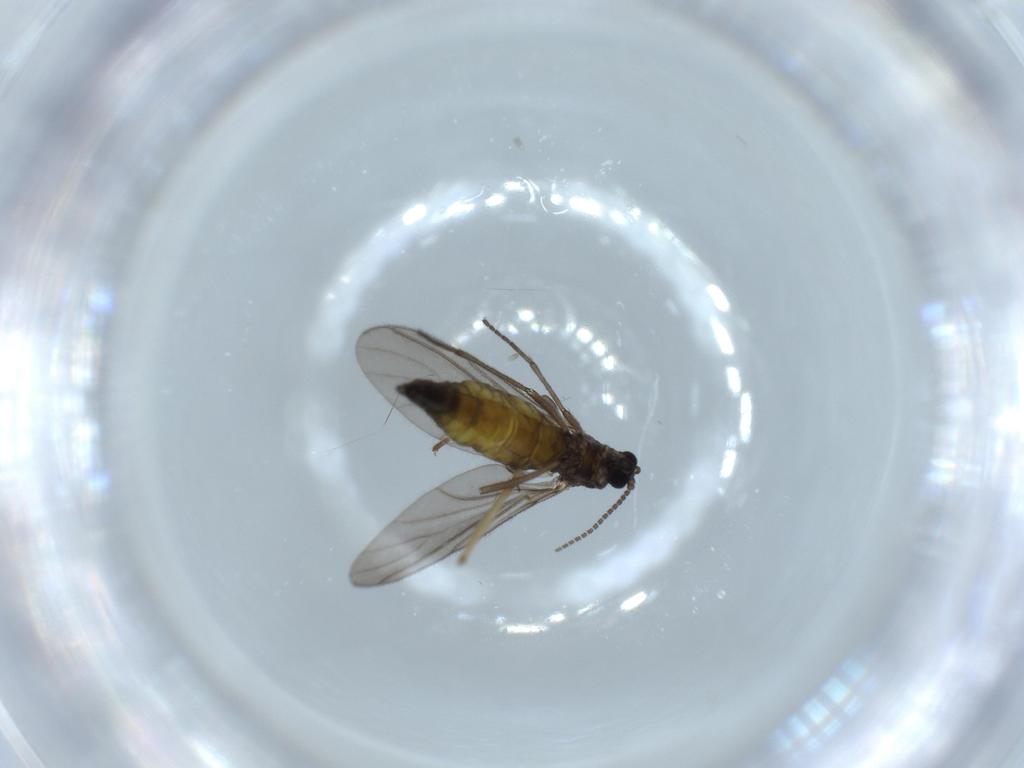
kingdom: Animalia
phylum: Arthropoda
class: Insecta
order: Diptera
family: Sciaridae
